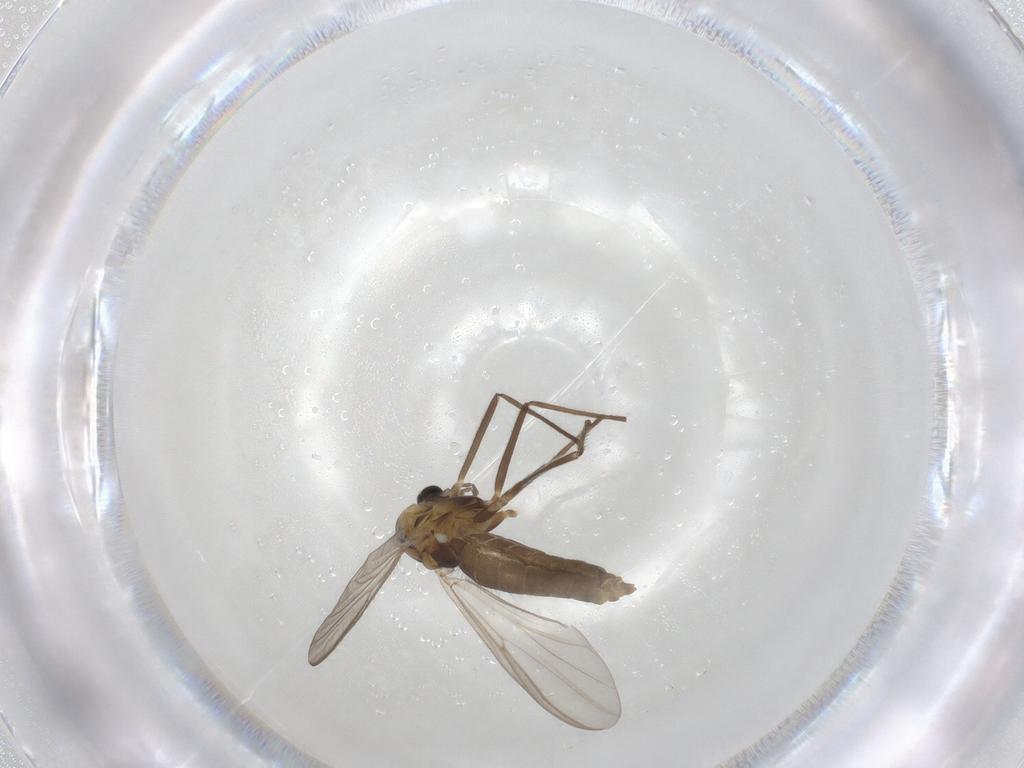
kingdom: Animalia
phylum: Arthropoda
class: Insecta
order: Diptera
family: Chironomidae
